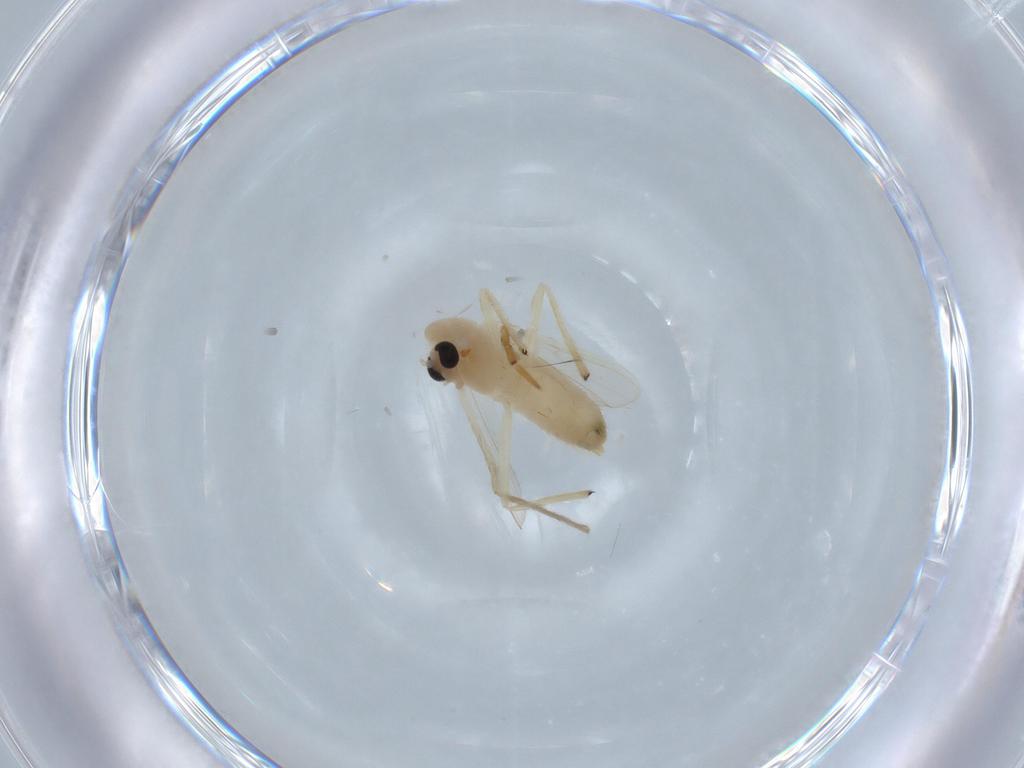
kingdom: Animalia
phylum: Arthropoda
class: Insecta
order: Diptera
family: Chironomidae
